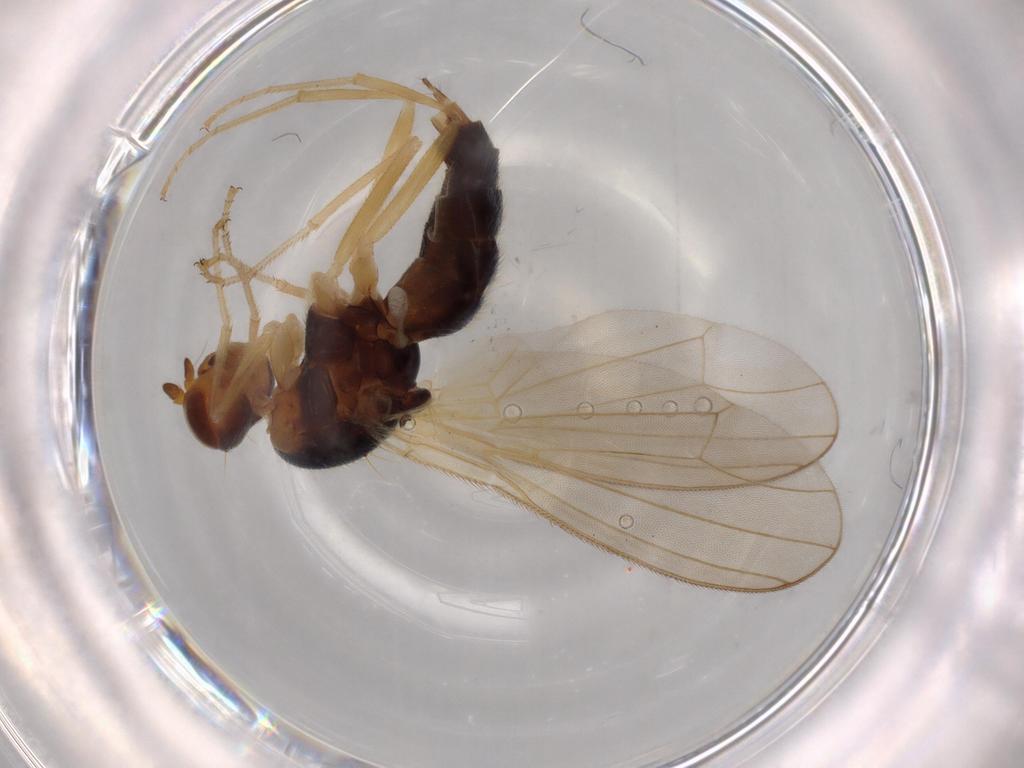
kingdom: Animalia
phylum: Arthropoda
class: Insecta
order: Diptera
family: Psilidae
